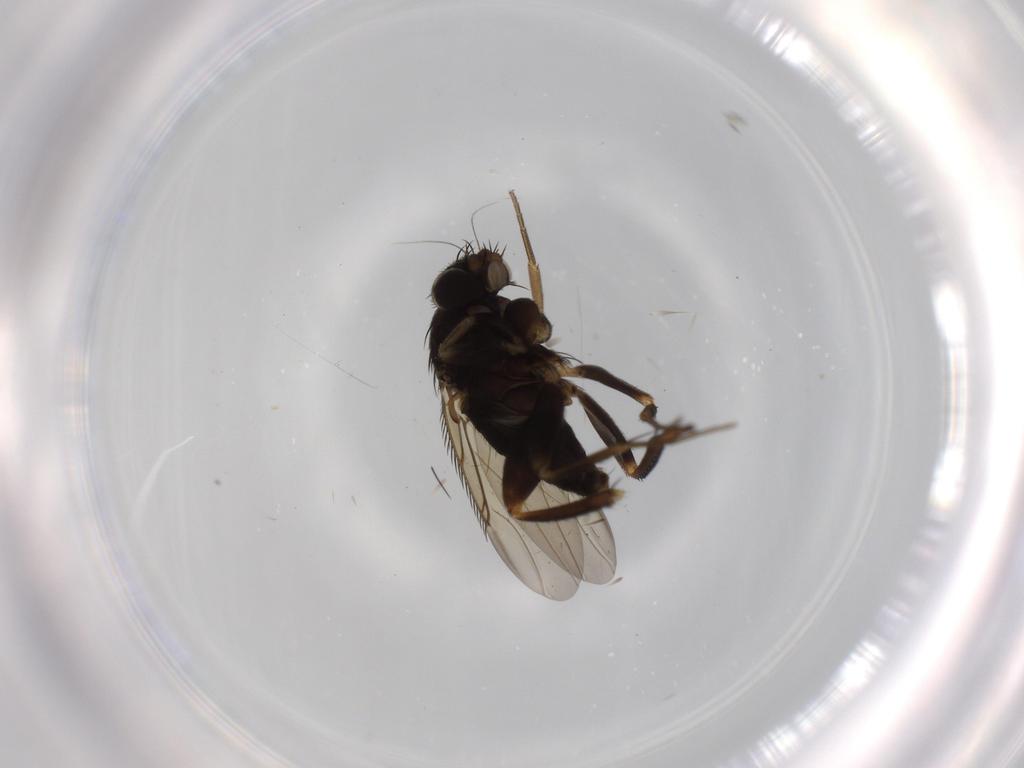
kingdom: Animalia
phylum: Arthropoda
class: Insecta
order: Diptera
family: Phoridae
